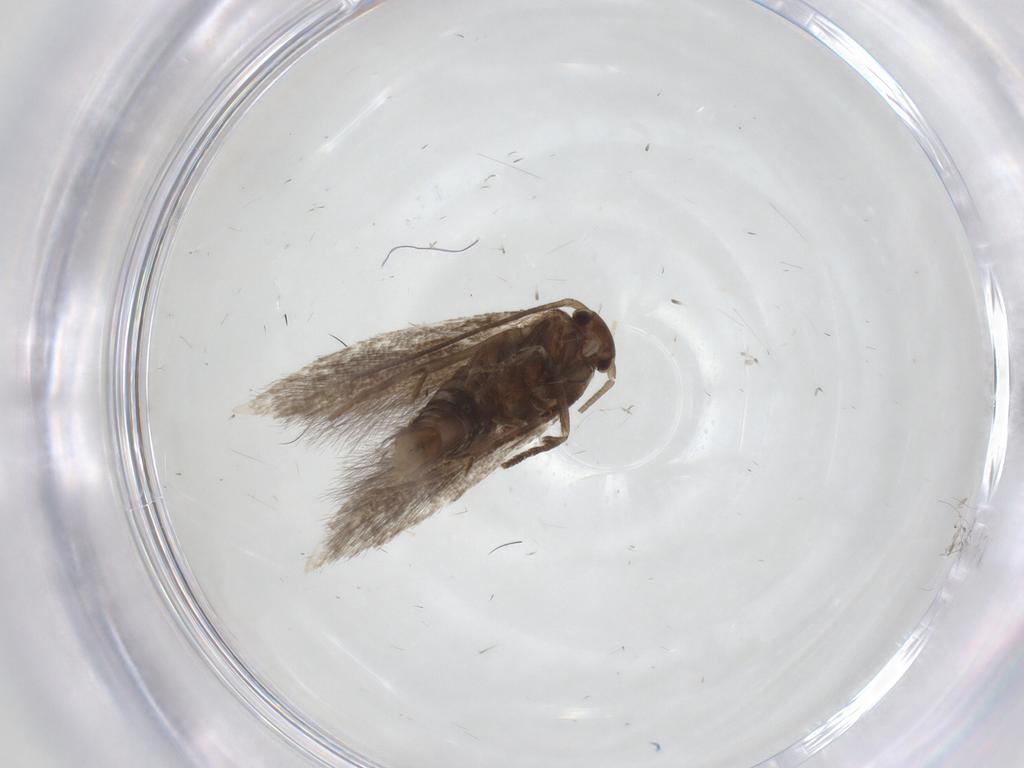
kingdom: Animalia
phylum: Arthropoda
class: Insecta
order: Lepidoptera
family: Elachistidae
